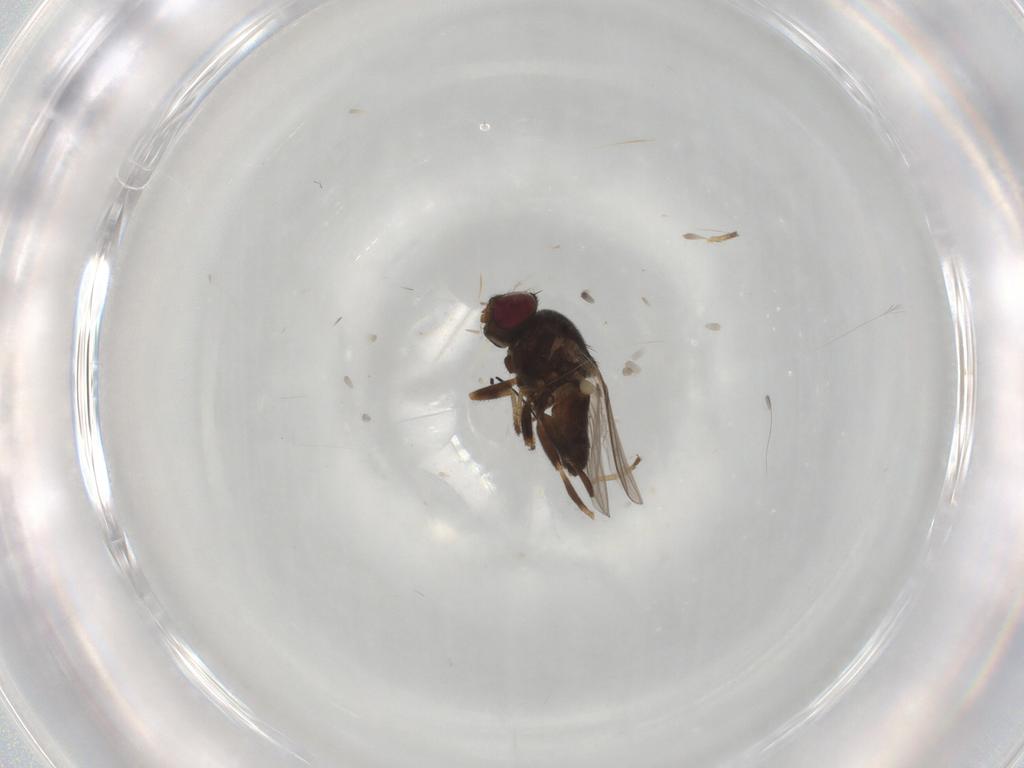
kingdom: Animalia
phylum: Arthropoda
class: Insecta
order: Diptera
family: Chloropidae
